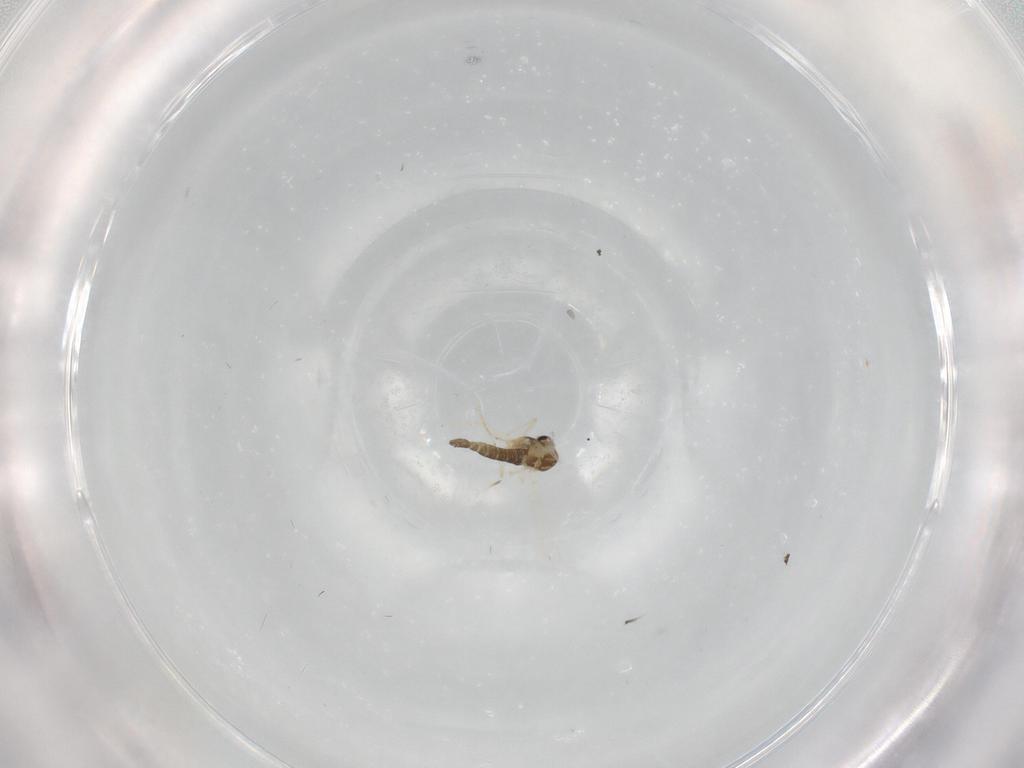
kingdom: Animalia
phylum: Arthropoda
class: Insecta
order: Diptera
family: Chironomidae
